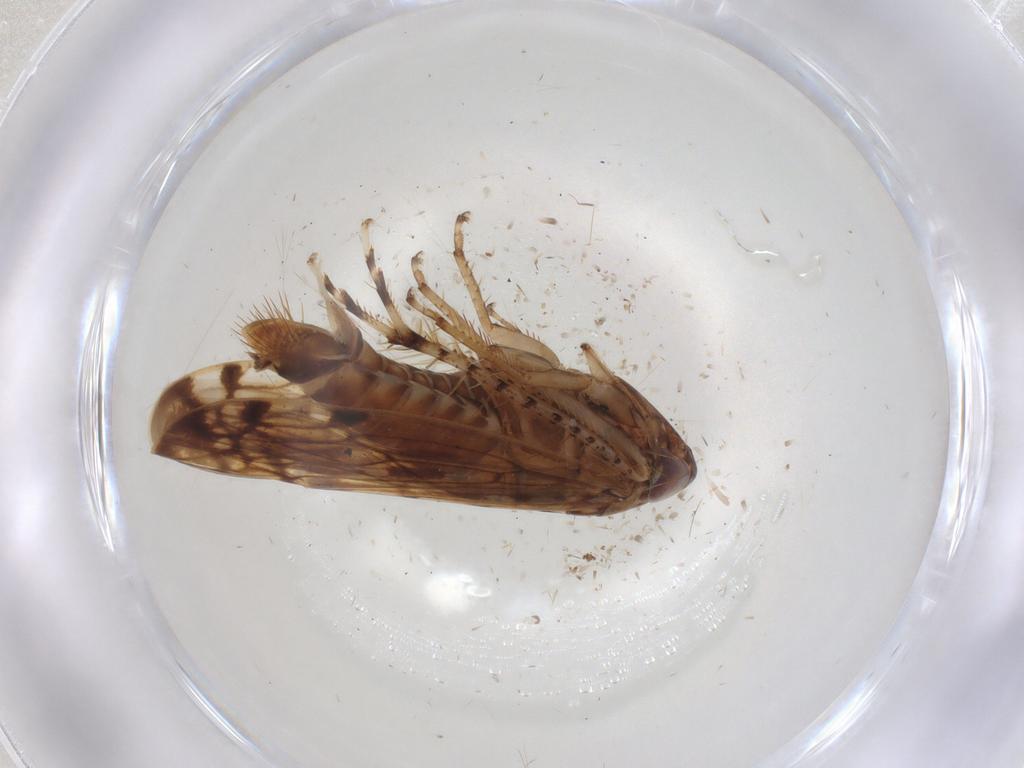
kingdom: Animalia
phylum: Arthropoda
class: Insecta
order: Hemiptera
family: Cicadellidae
